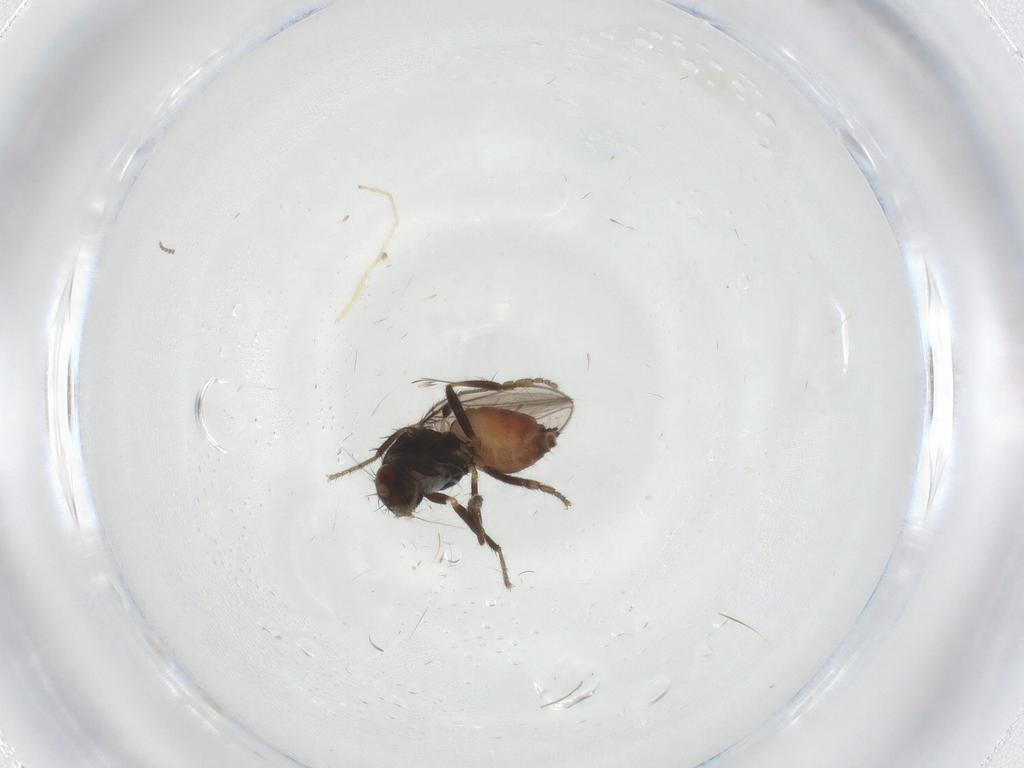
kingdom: Animalia
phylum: Arthropoda
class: Insecta
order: Diptera
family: Sphaeroceridae
